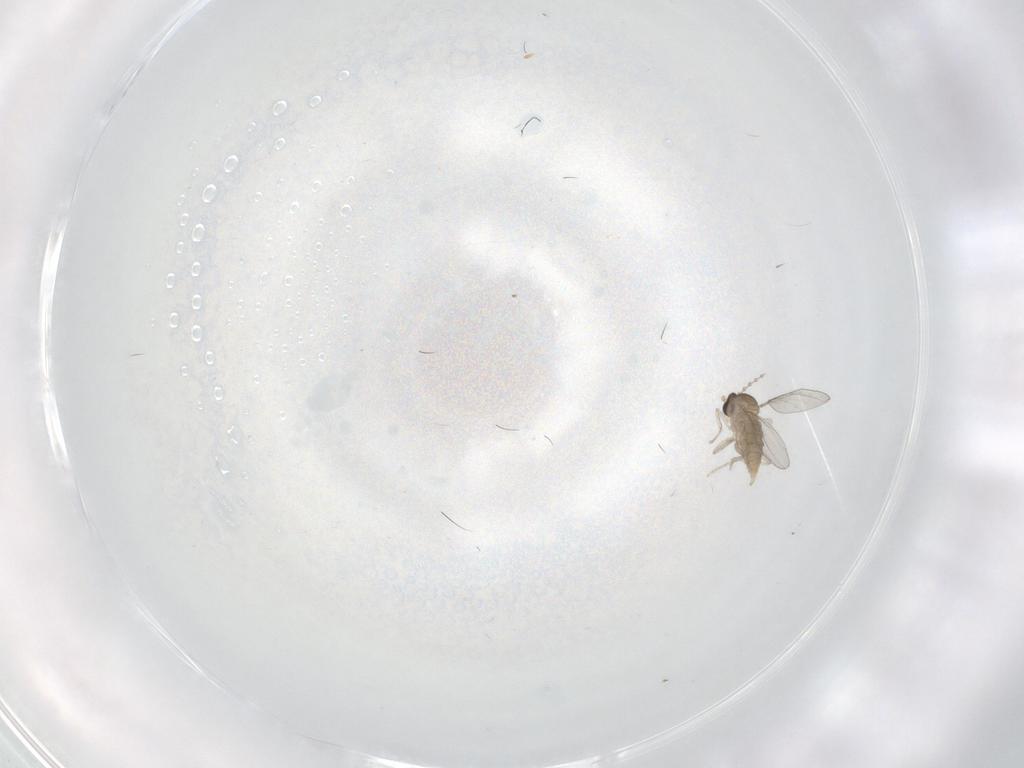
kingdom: Animalia
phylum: Arthropoda
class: Insecta
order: Diptera
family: Cecidomyiidae
